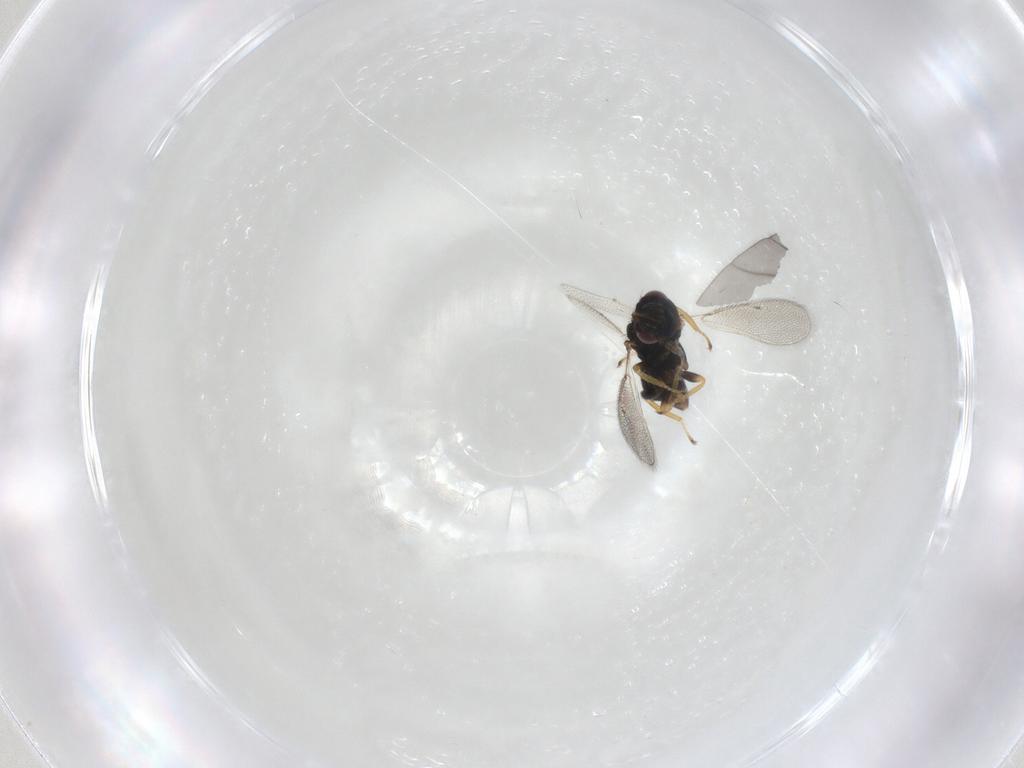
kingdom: Animalia
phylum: Arthropoda
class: Insecta
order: Hymenoptera
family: Eulophidae
